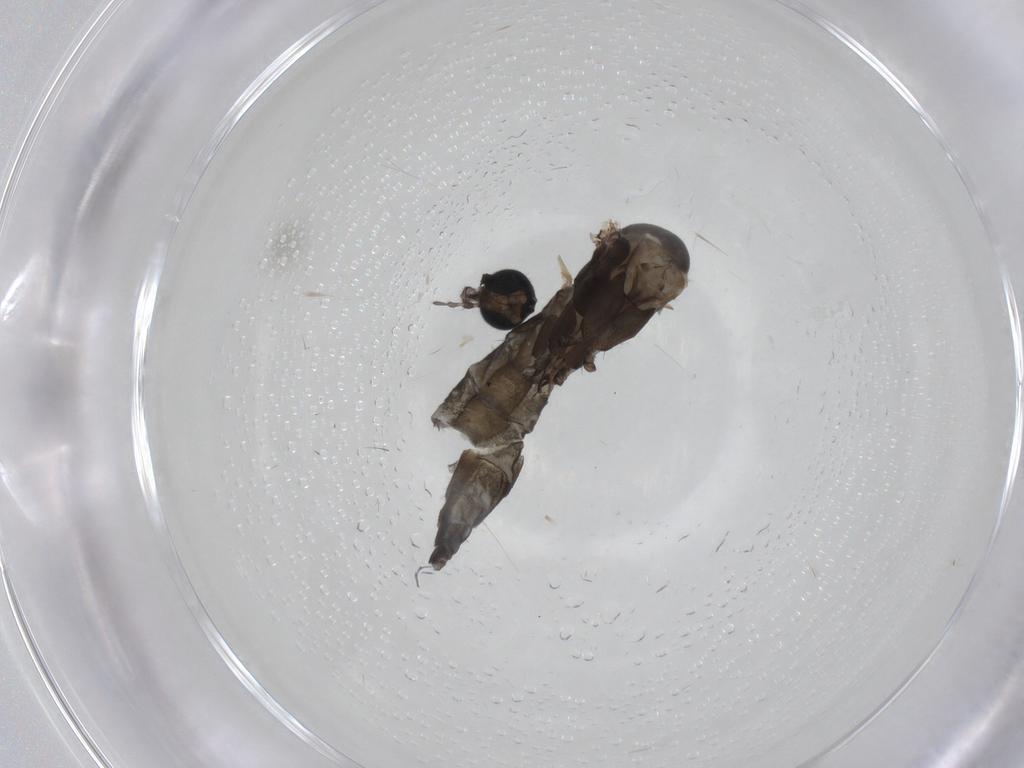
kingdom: Animalia
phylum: Arthropoda
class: Insecta
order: Diptera
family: Sciaridae
